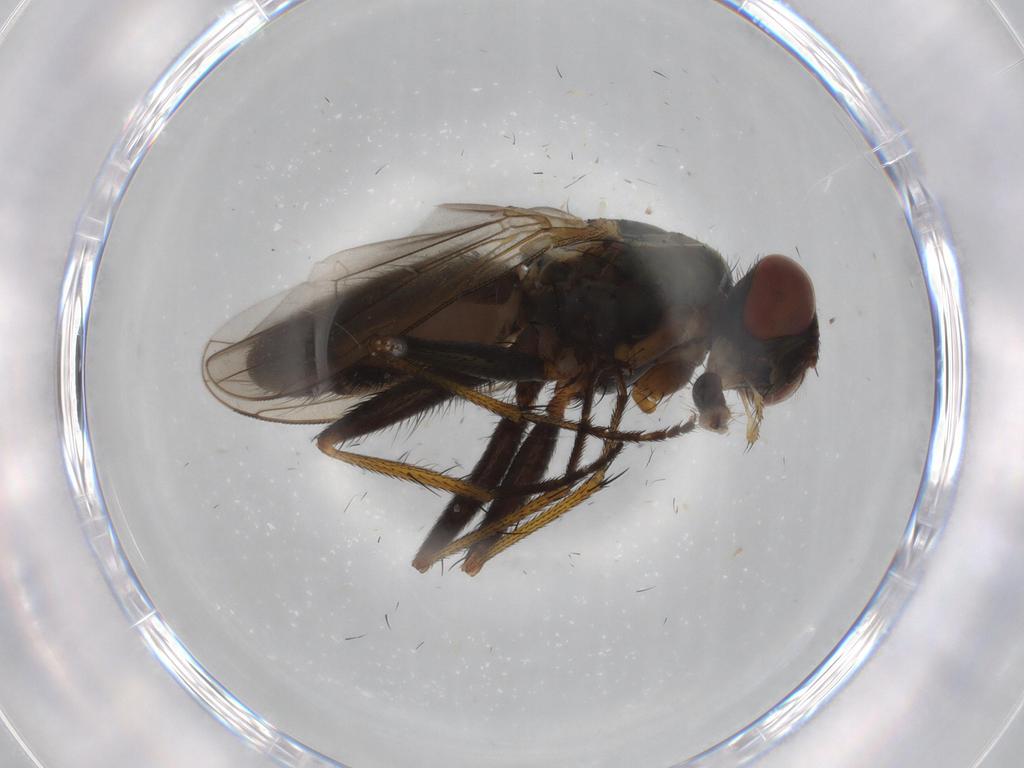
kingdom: Animalia
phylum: Arthropoda
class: Insecta
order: Diptera
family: Muscidae
